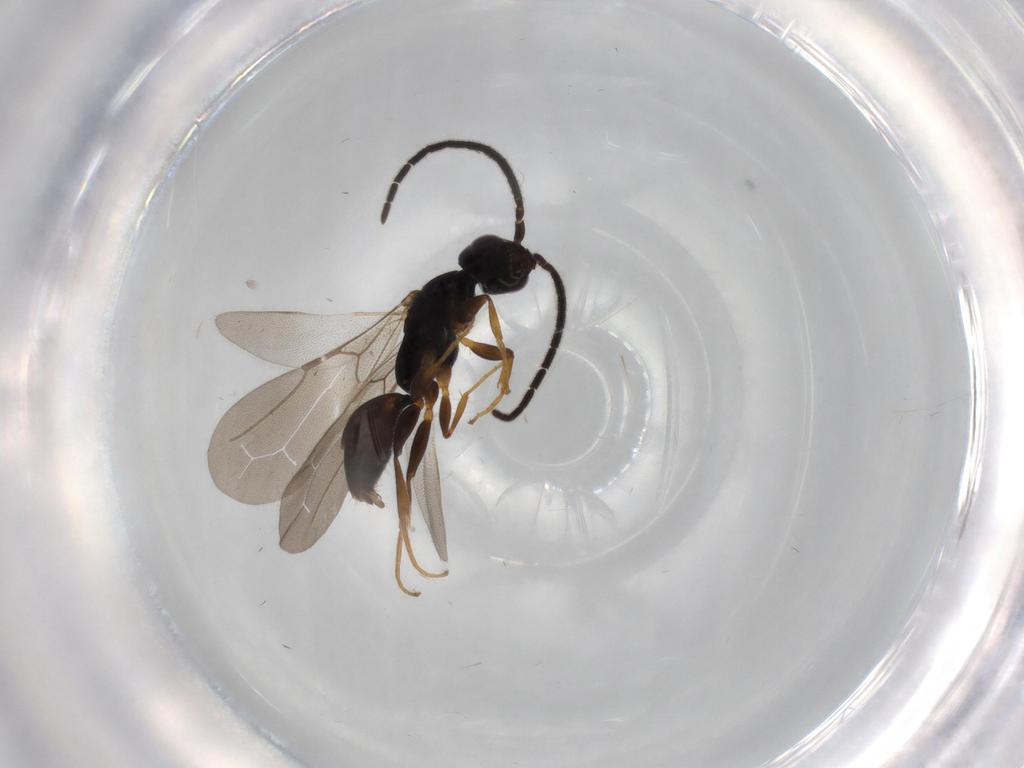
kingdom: Animalia
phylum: Arthropoda
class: Insecta
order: Hymenoptera
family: Bethylidae
